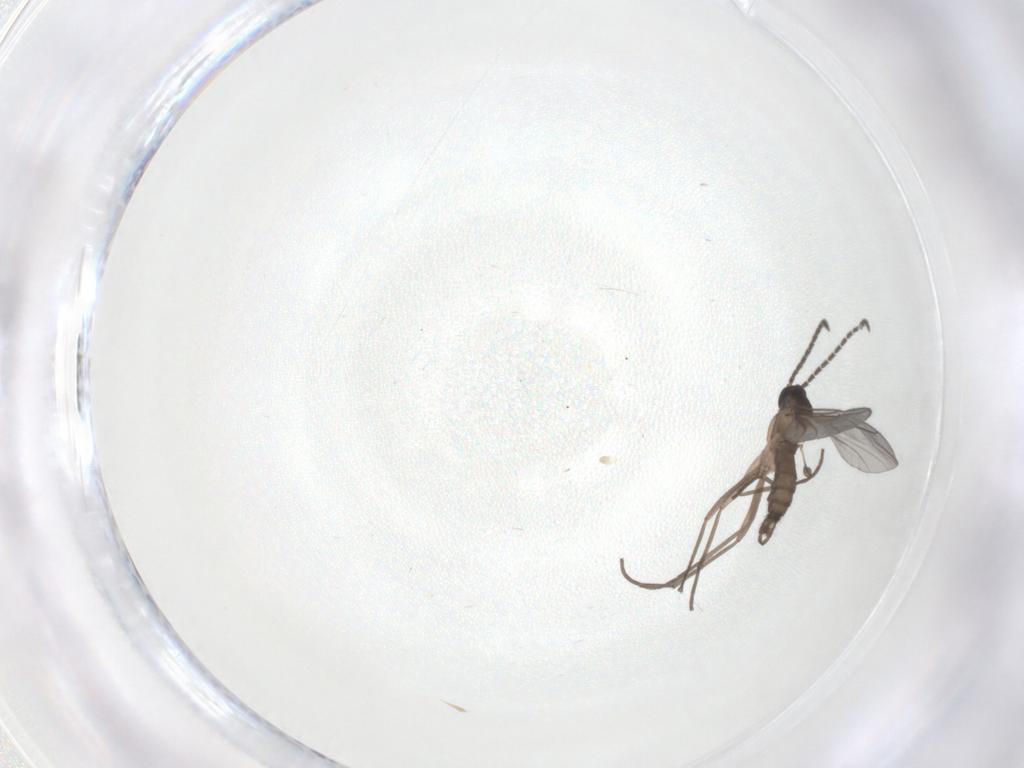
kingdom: Animalia
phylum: Arthropoda
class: Insecta
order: Diptera
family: Sciaridae
